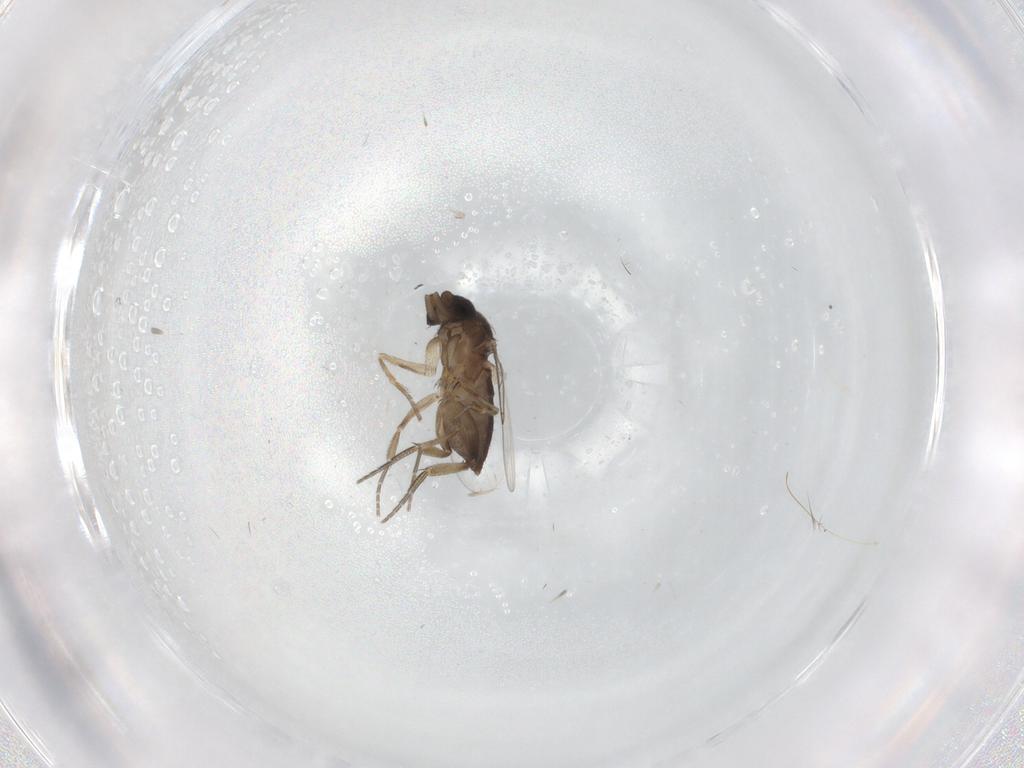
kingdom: Animalia
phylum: Arthropoda
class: Insecta
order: Diptera
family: Phoridae
